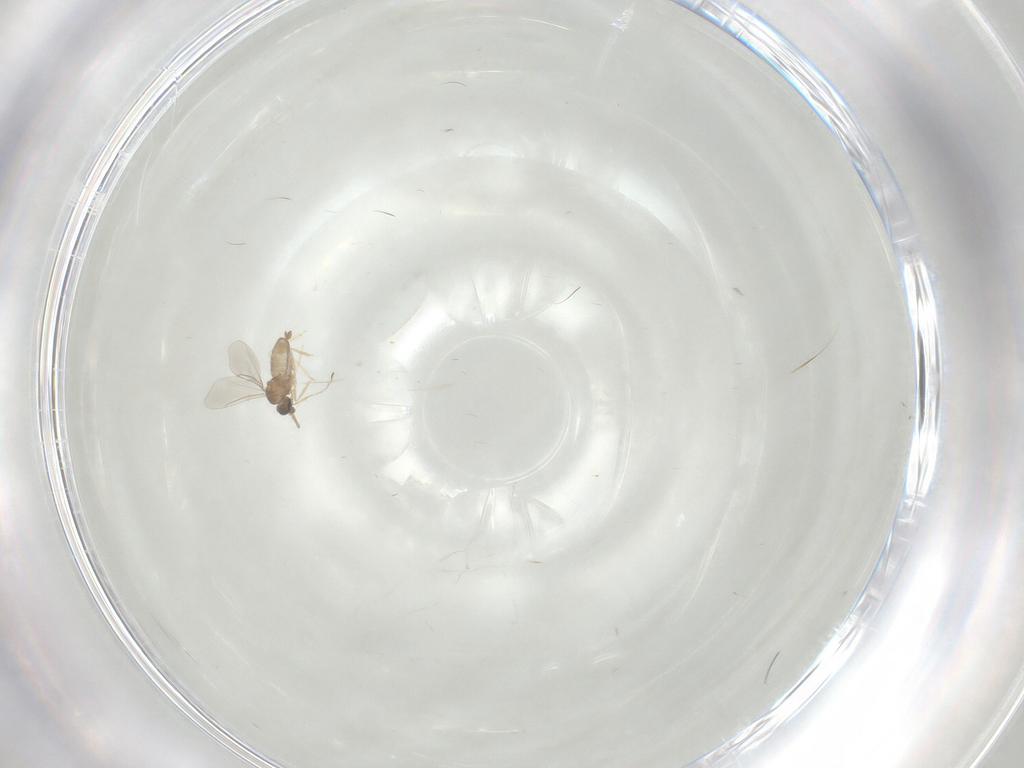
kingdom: Animalia
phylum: Arthropoda
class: Insecta
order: Diptera
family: Cecidomyiidae
